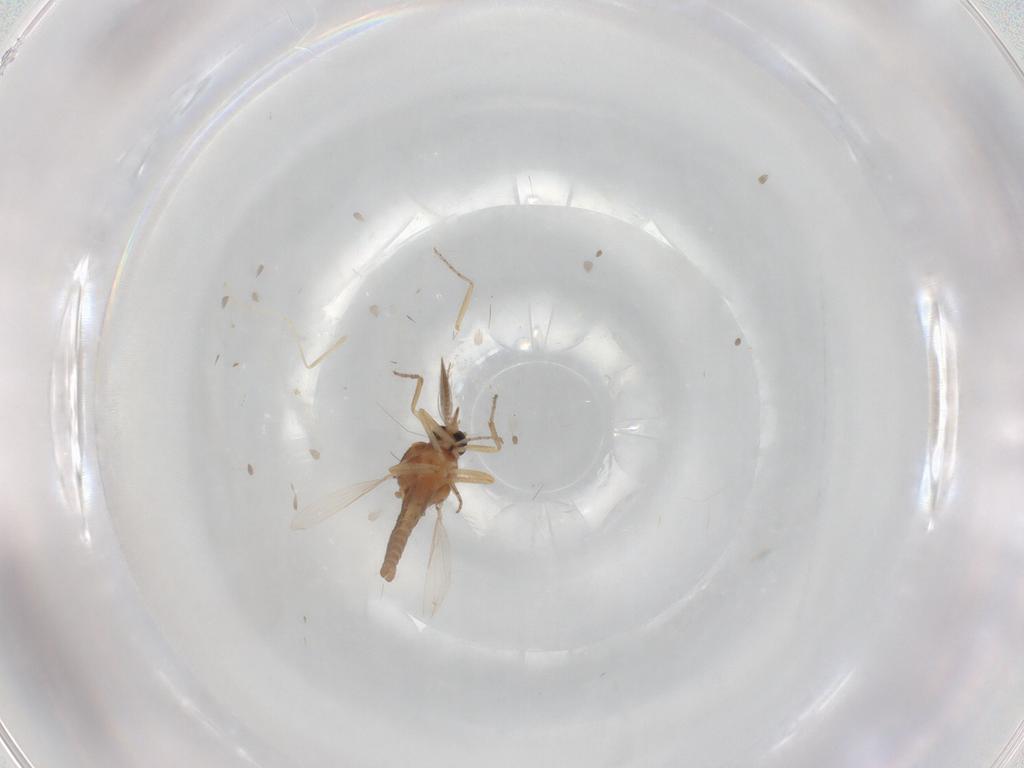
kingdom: Animalia
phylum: Arthropoda
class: Insecta
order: Diptera
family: Ceratopogonidae
